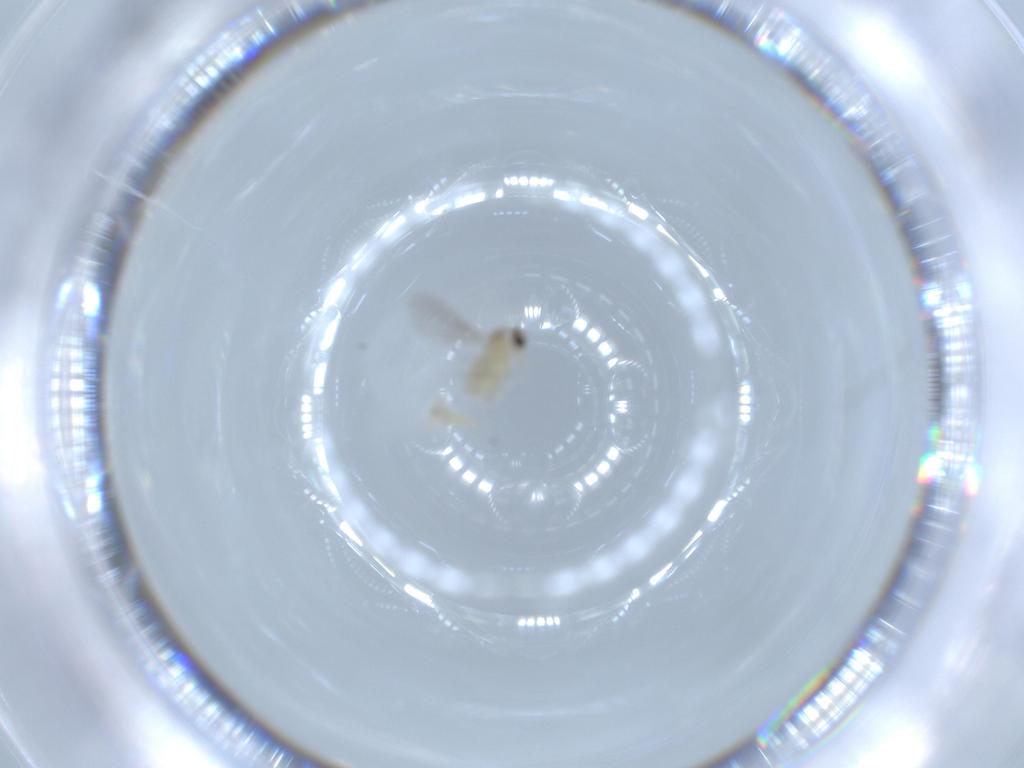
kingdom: Animalia
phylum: Arthropoda
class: Insecta
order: Diptera
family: Cecidomyiidae
